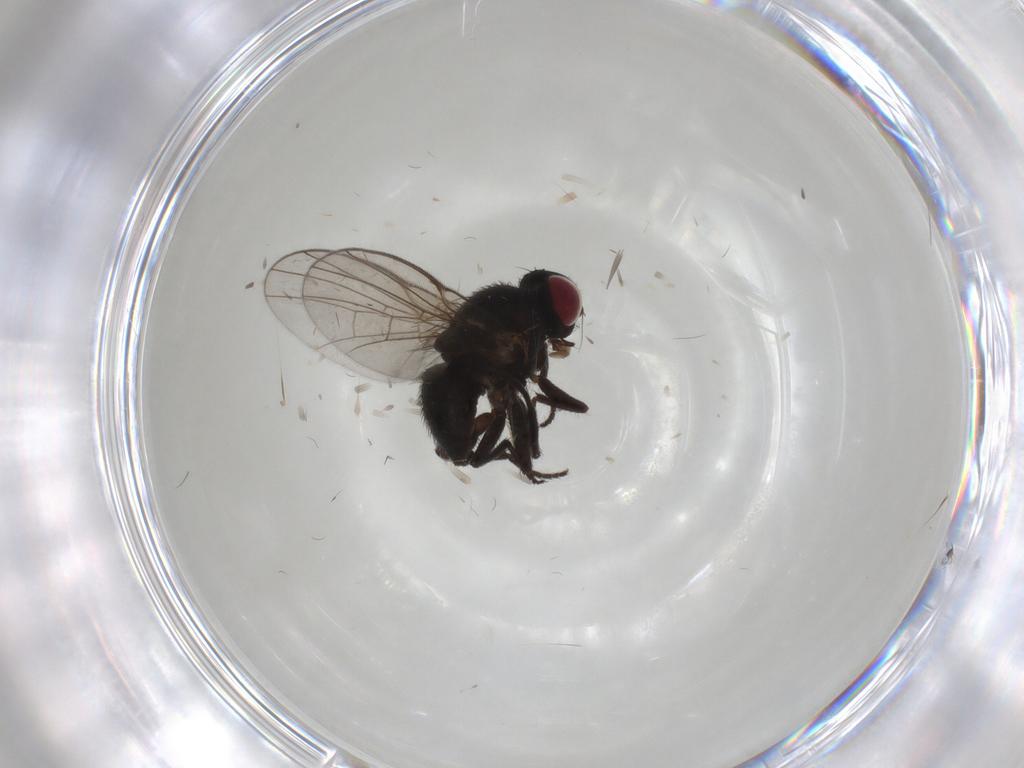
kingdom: Animalia
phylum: Arthropoda
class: Insecta
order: Diptera
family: Agromyzidae
